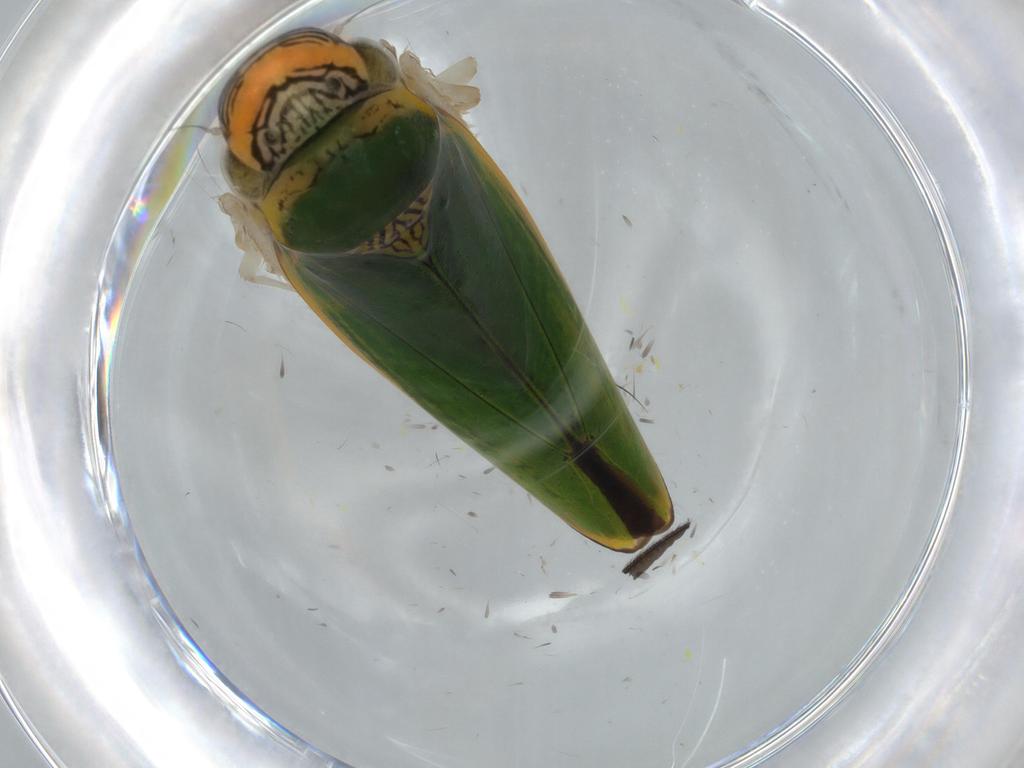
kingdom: Animalia
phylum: Arthropoda
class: Insecta
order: Hemiptera
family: Cicadellidae
